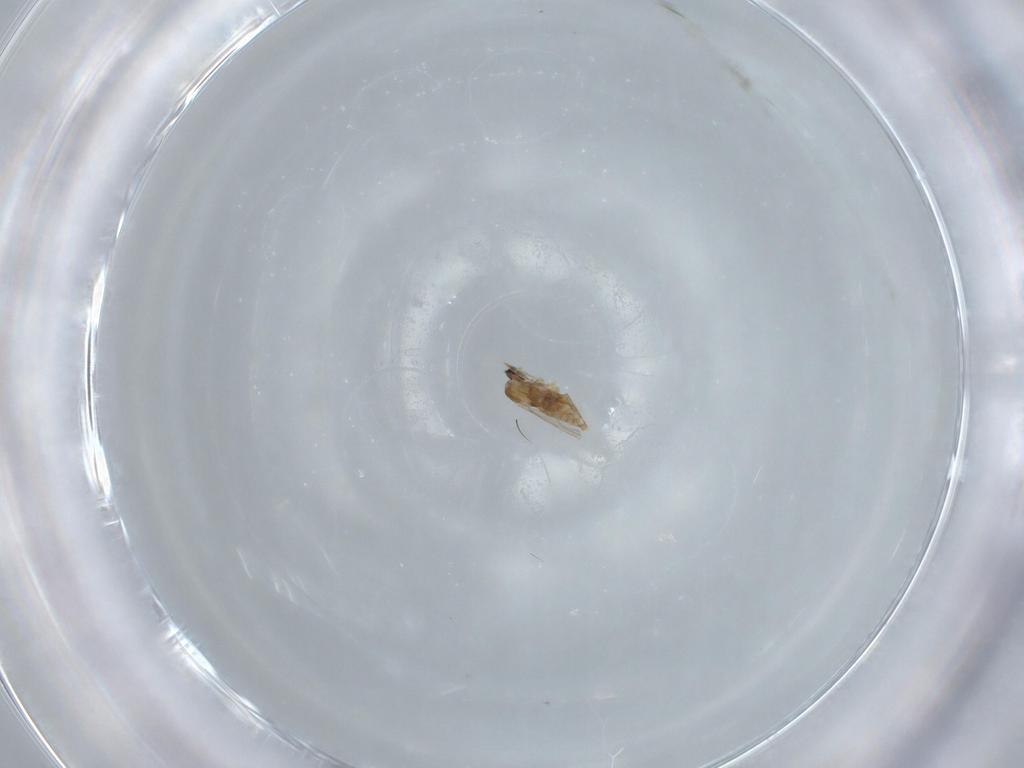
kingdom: Animalia
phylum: Arthropoda
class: Insecta
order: Diptera
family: Cecidomyiidae
